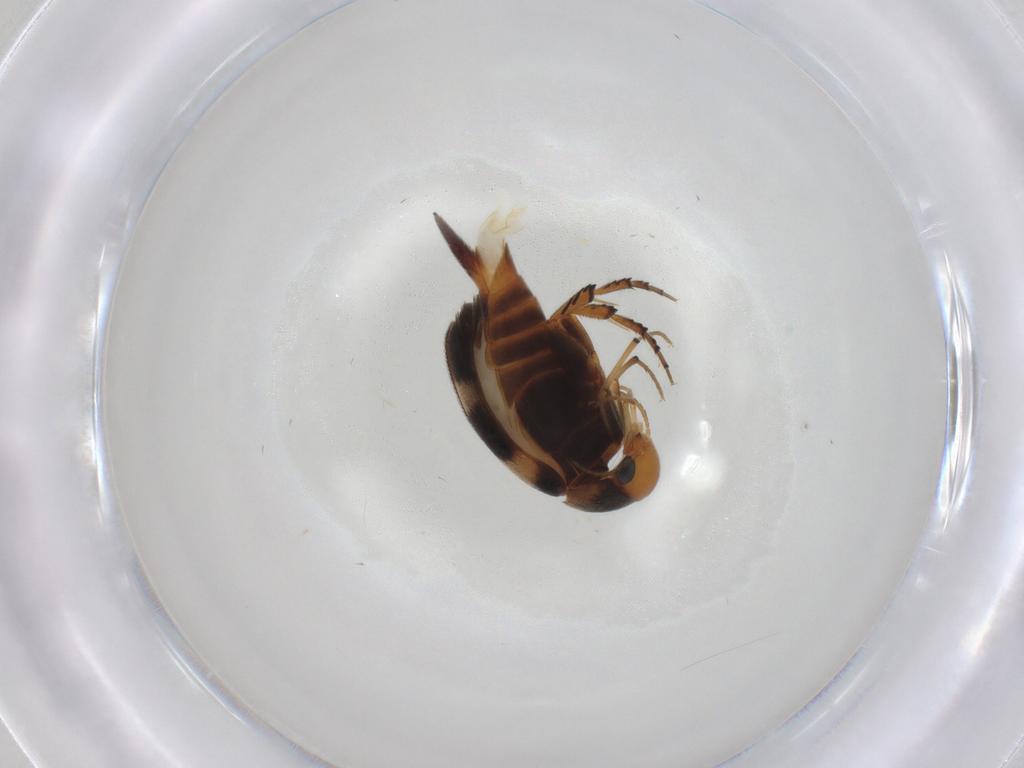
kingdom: Animalia
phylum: Arthropoda
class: Insecta
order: Coleoptera
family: Mordellidae
